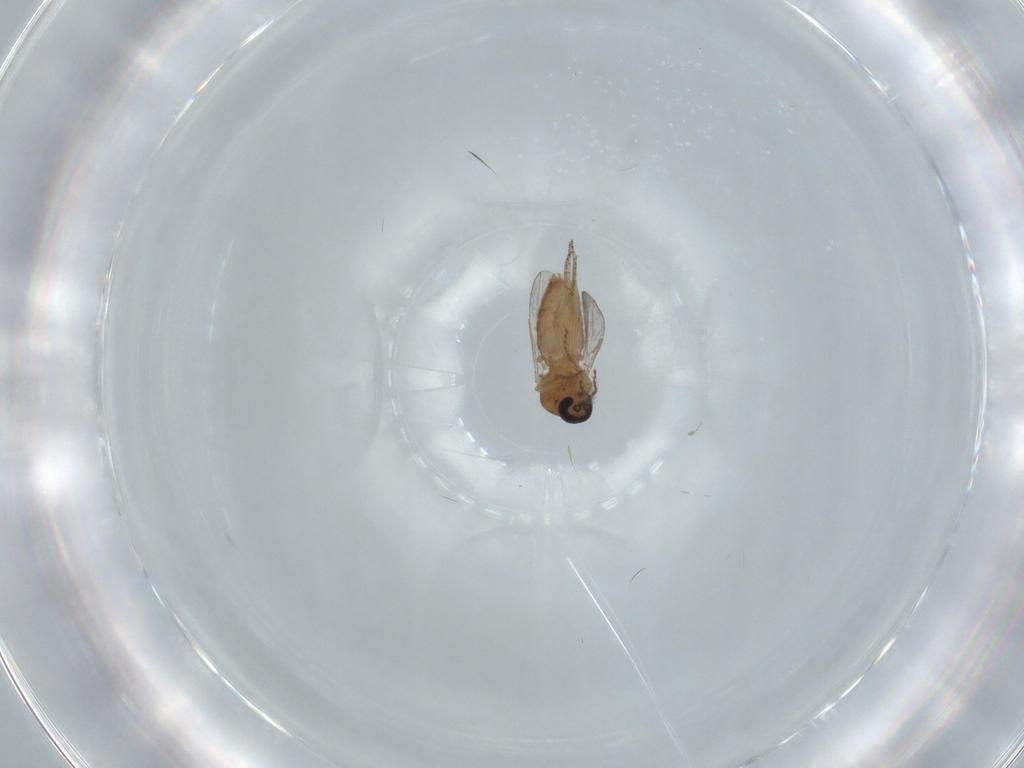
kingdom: Animalia
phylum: Arthropoda
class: Insecta
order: Diptera
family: Ceratopogonidae
